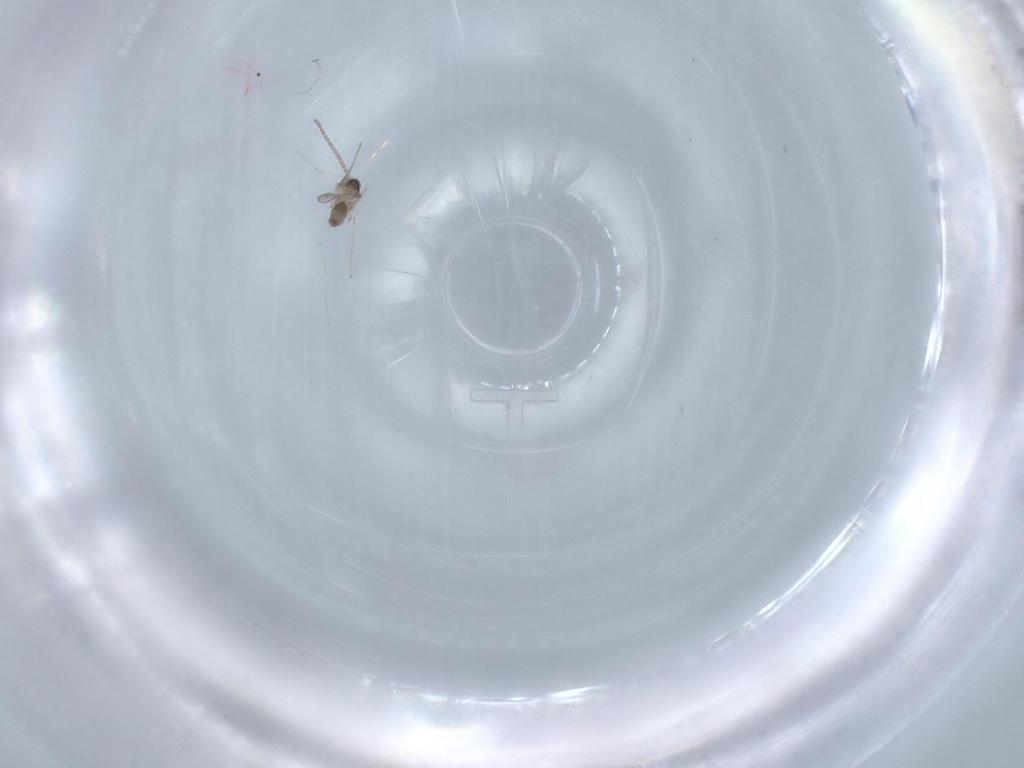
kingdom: Animalia
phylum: Arthropoda
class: Insecta
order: Diptera
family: Cecidomyiidae
